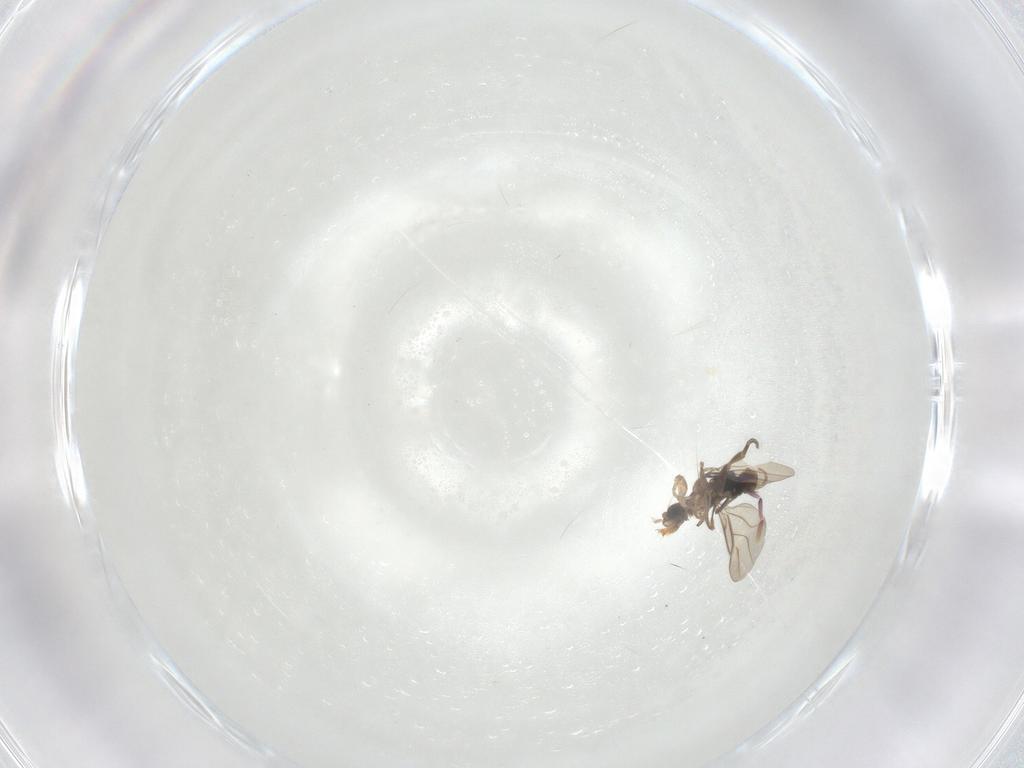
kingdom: Animalia
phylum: Arthropoda
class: Insecta
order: Diptera
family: Phoridae
